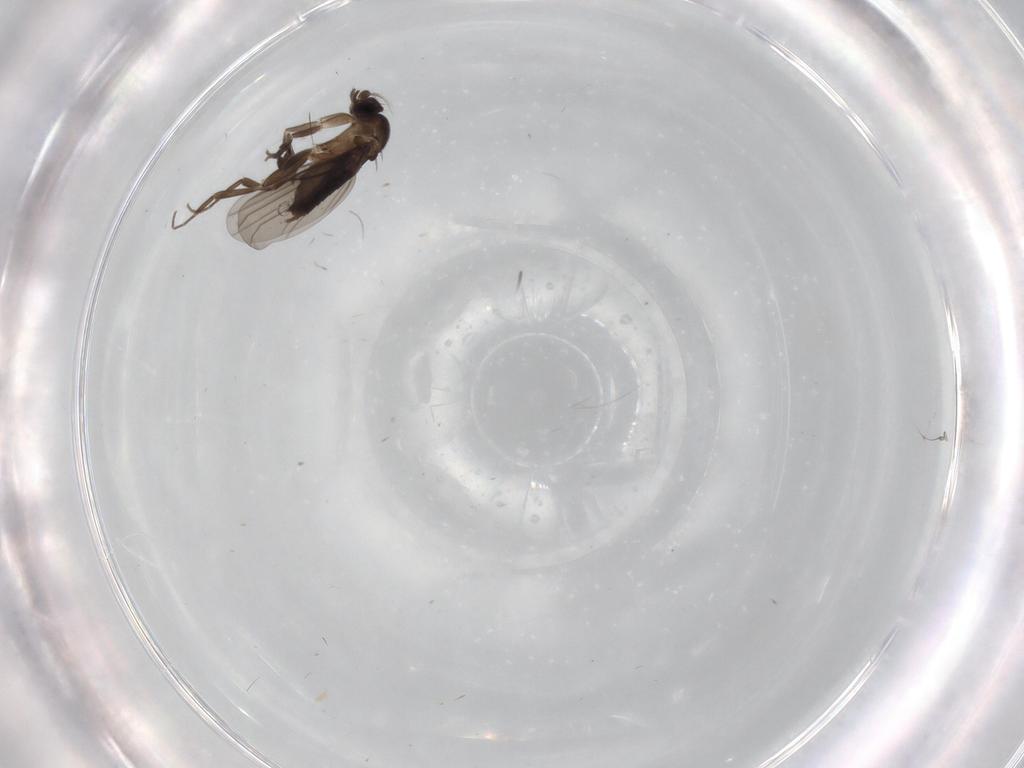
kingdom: Animalia
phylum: Arthropoda
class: Insecta
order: Diptera
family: Phoridae
